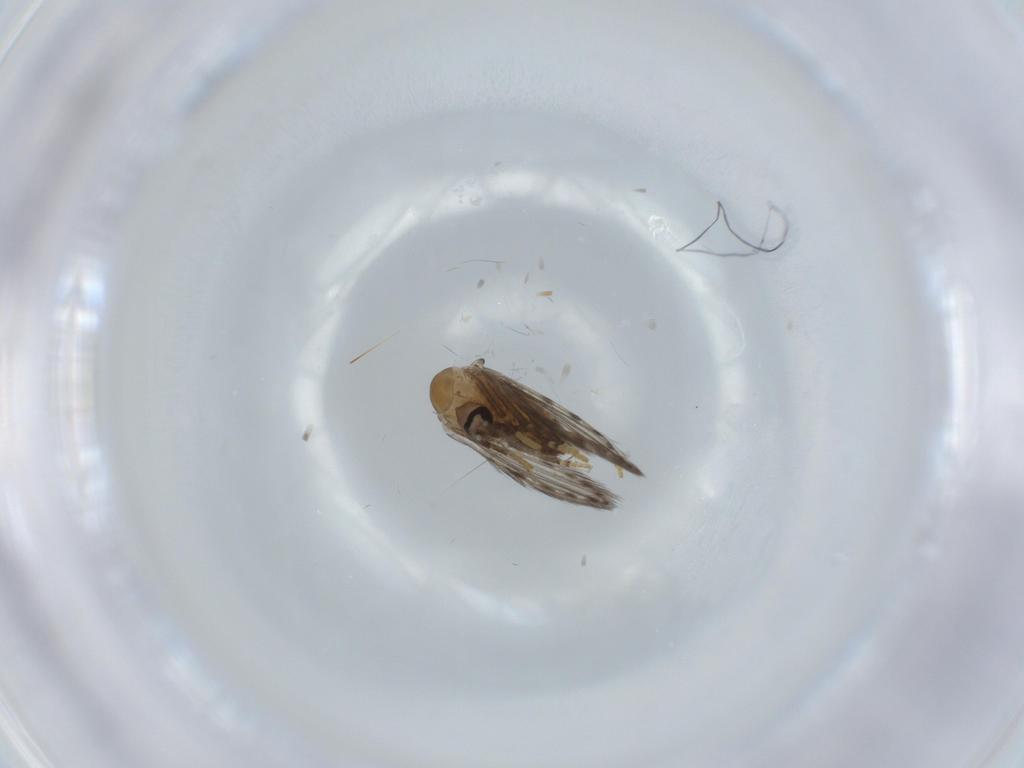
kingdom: Animalia
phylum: Arthropoda
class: Insecta
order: Diptera
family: Psychodidae
